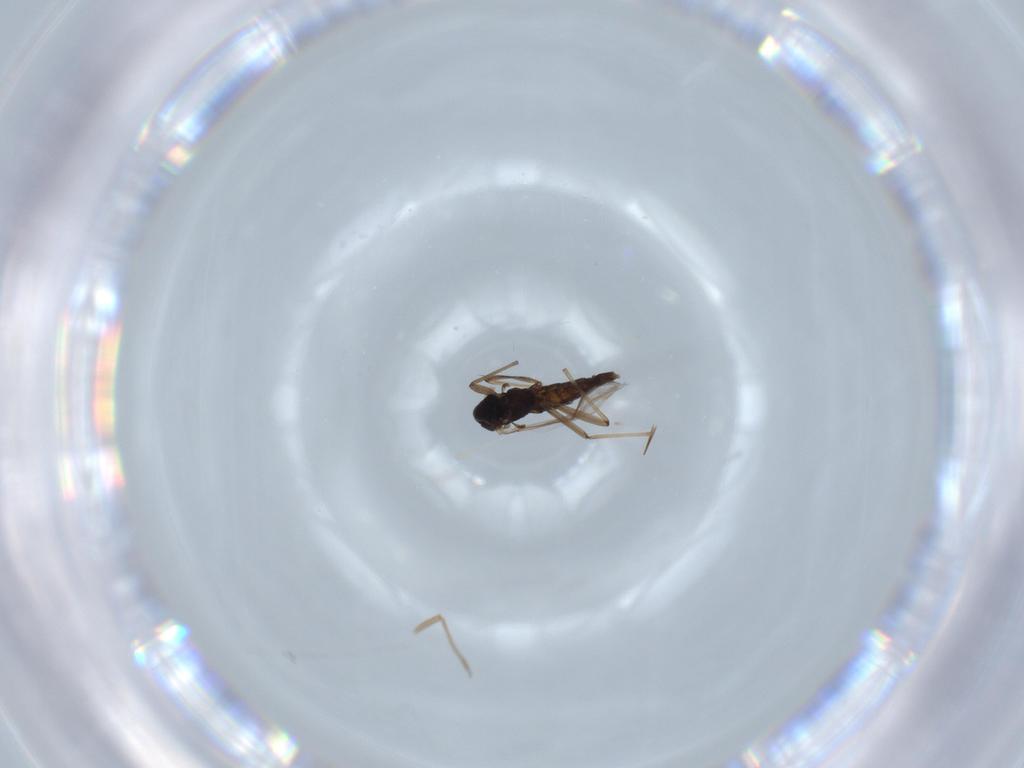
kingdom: Animalia
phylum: Arthropoda
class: Insecta
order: Diptera
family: Chironomidae
